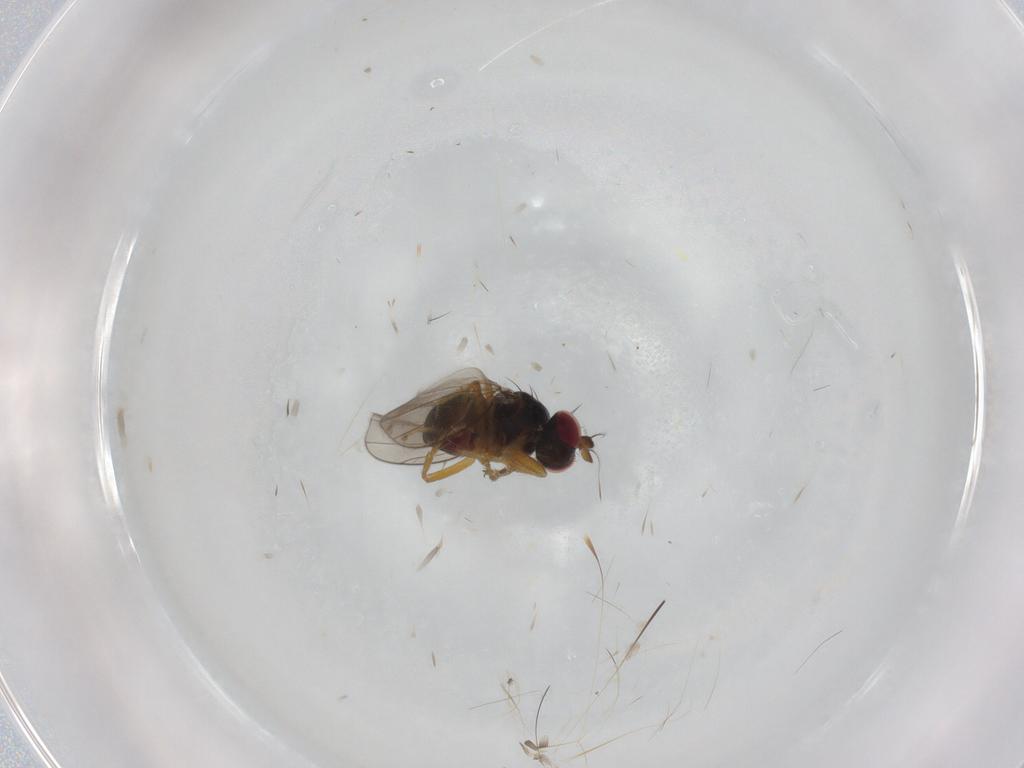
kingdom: Animalia
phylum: Arthropoda
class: Insecta
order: Diptera
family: Ephydridae
